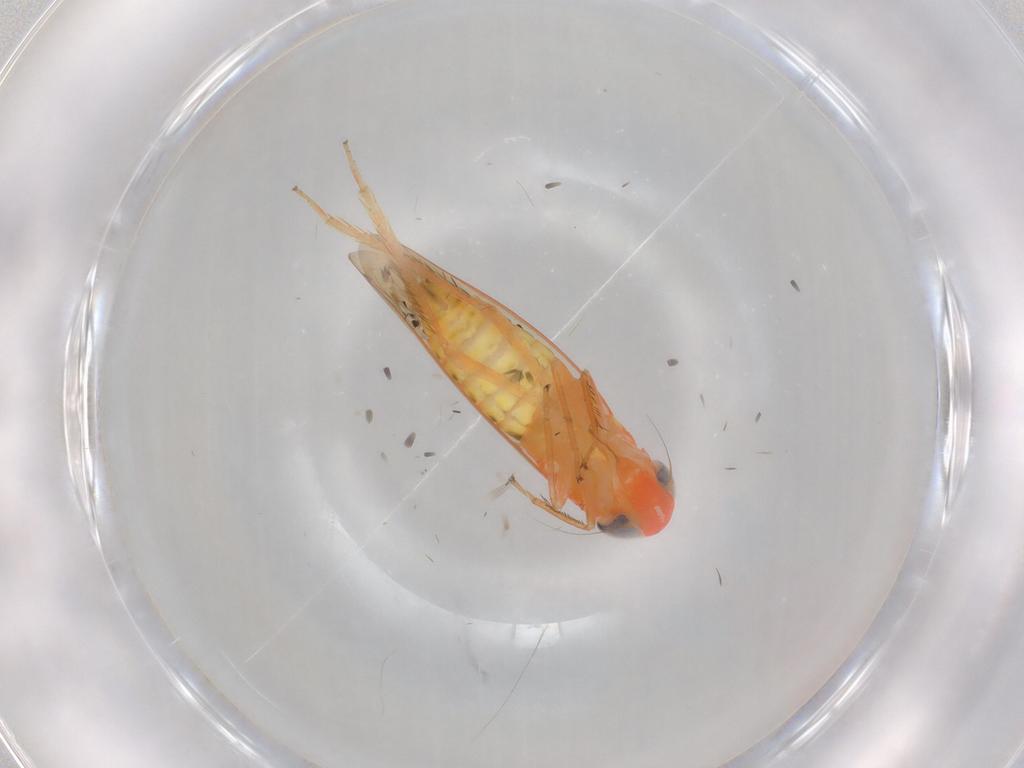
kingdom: Animalia
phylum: Arthropoda
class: Insecta
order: Hemiptera
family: Cicadellidae
